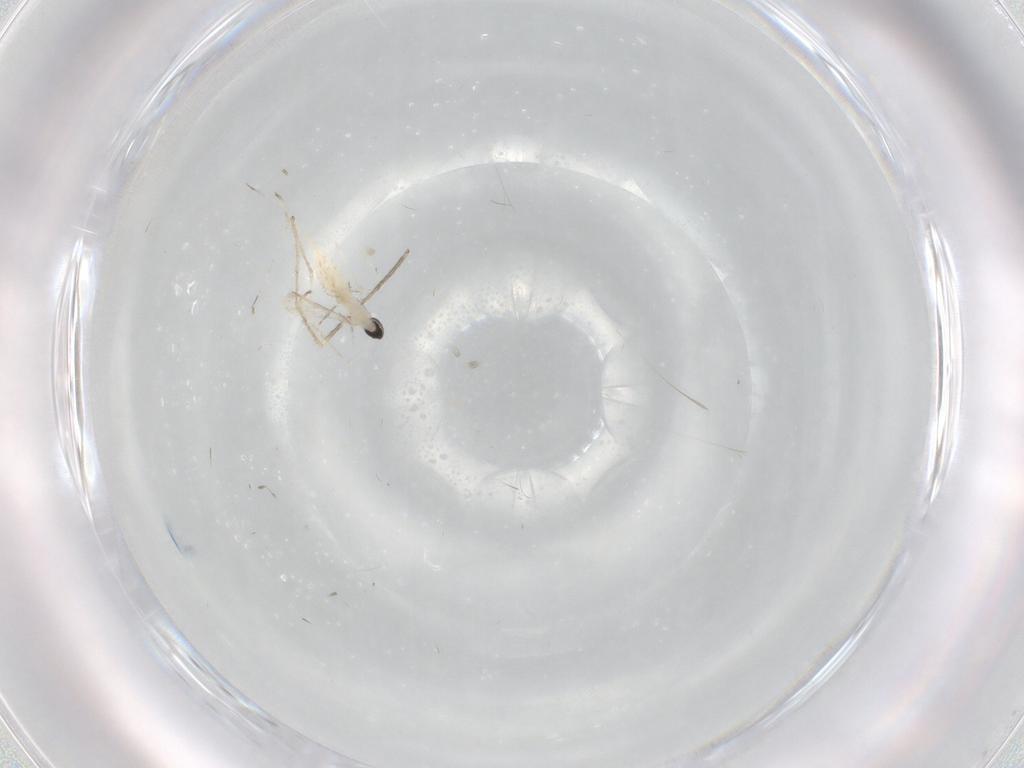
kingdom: Animalia
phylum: Arthropoda
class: Insecta
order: Diptera
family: Limoniidae
